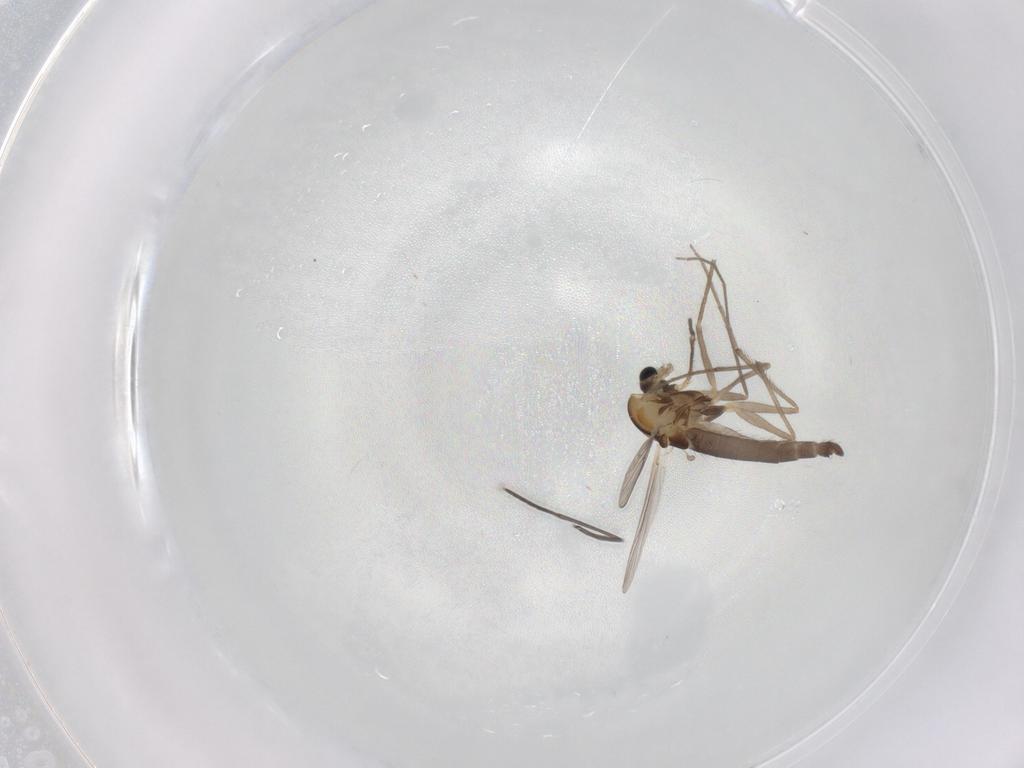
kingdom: Animalia
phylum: Arthropoda
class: Insecta
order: Diptera
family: Chironomidae
